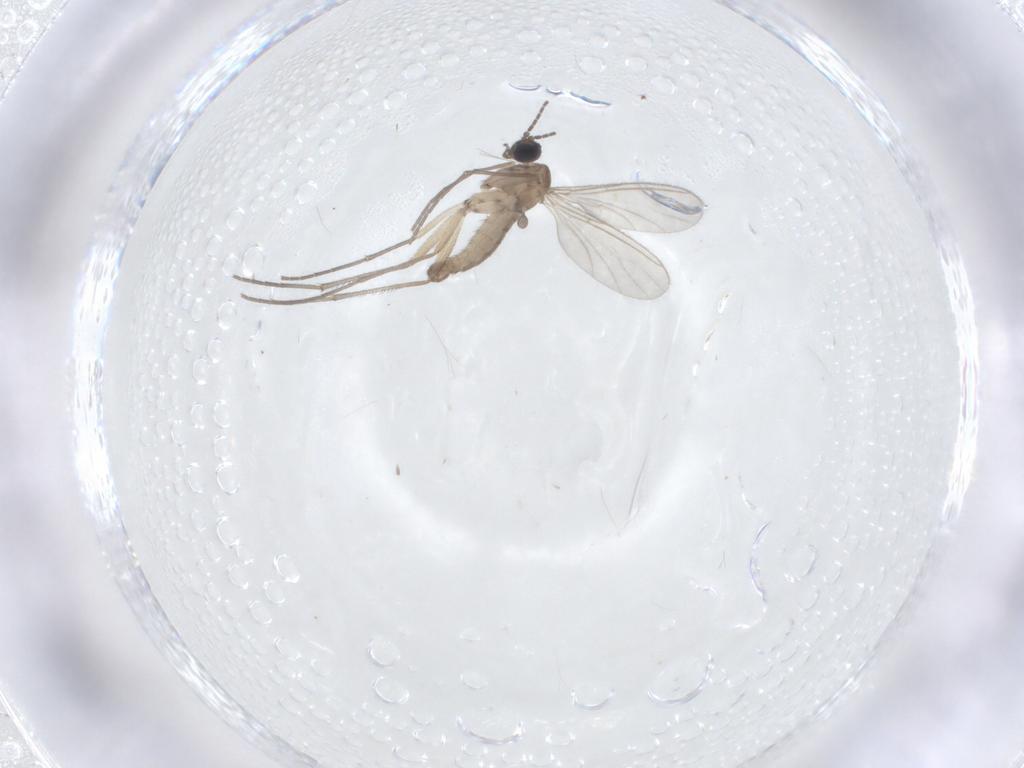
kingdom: Animalia
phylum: Arthropoda
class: Insecta
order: Diptera
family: Sciaridae
